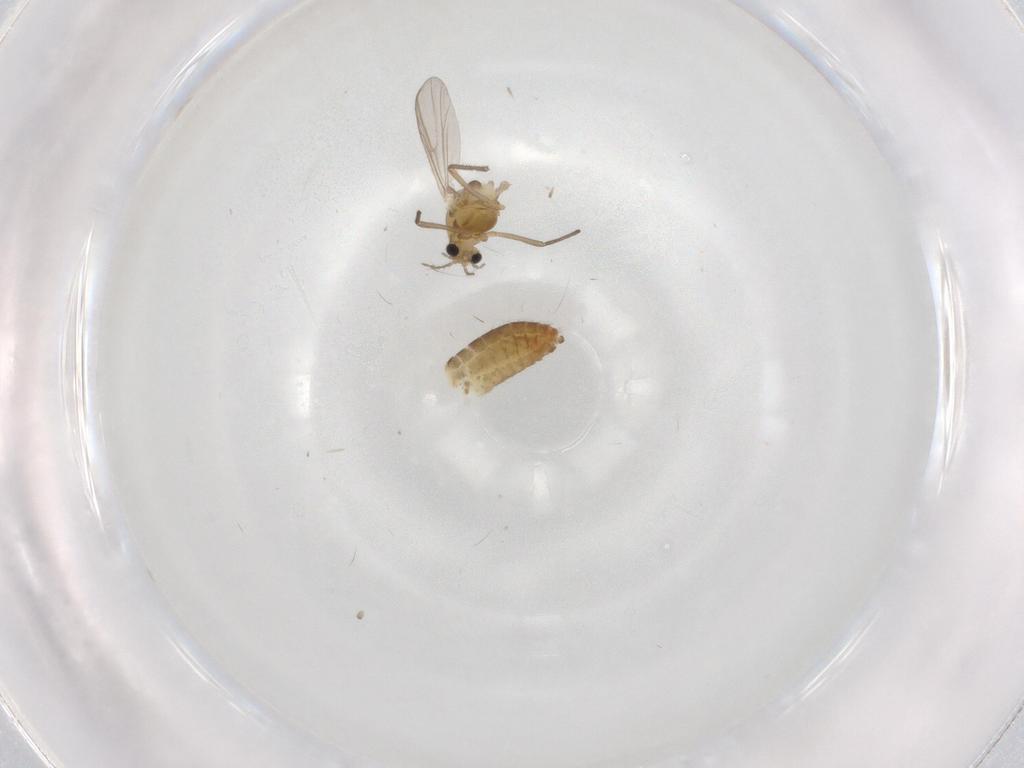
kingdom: Animalia
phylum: Arthropoda
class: Insecta
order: Diptera
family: Chironomidae
